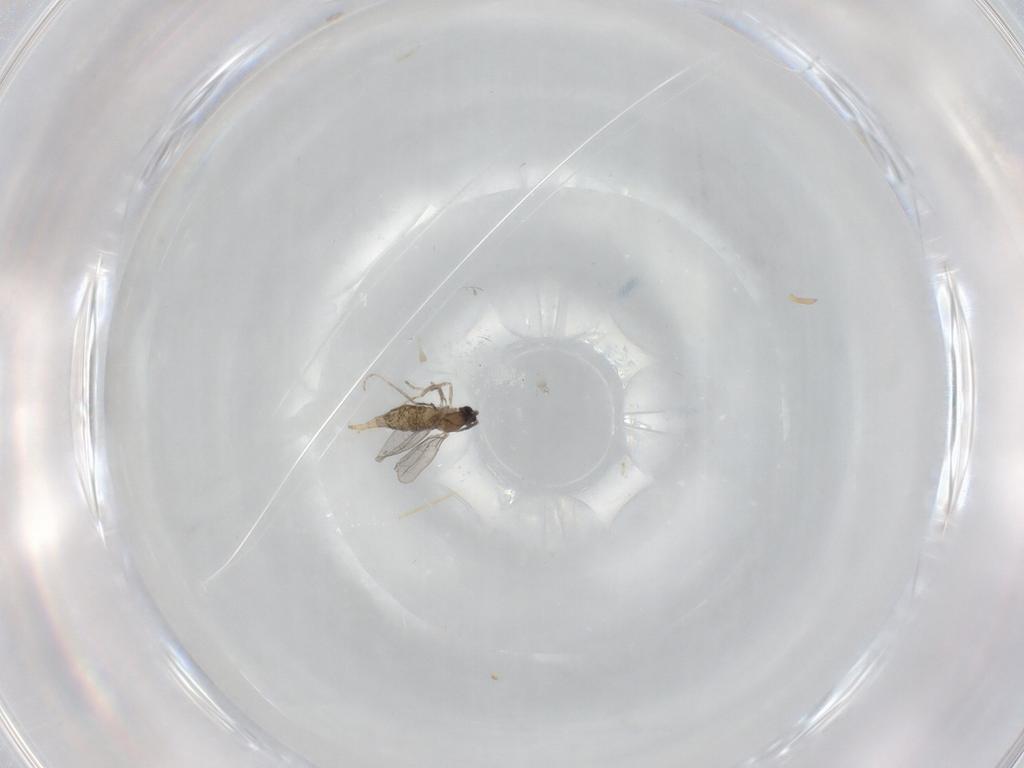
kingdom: Animalia
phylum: Arthropoda
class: Insecta
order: Diptera
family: Cecidomyiidae
